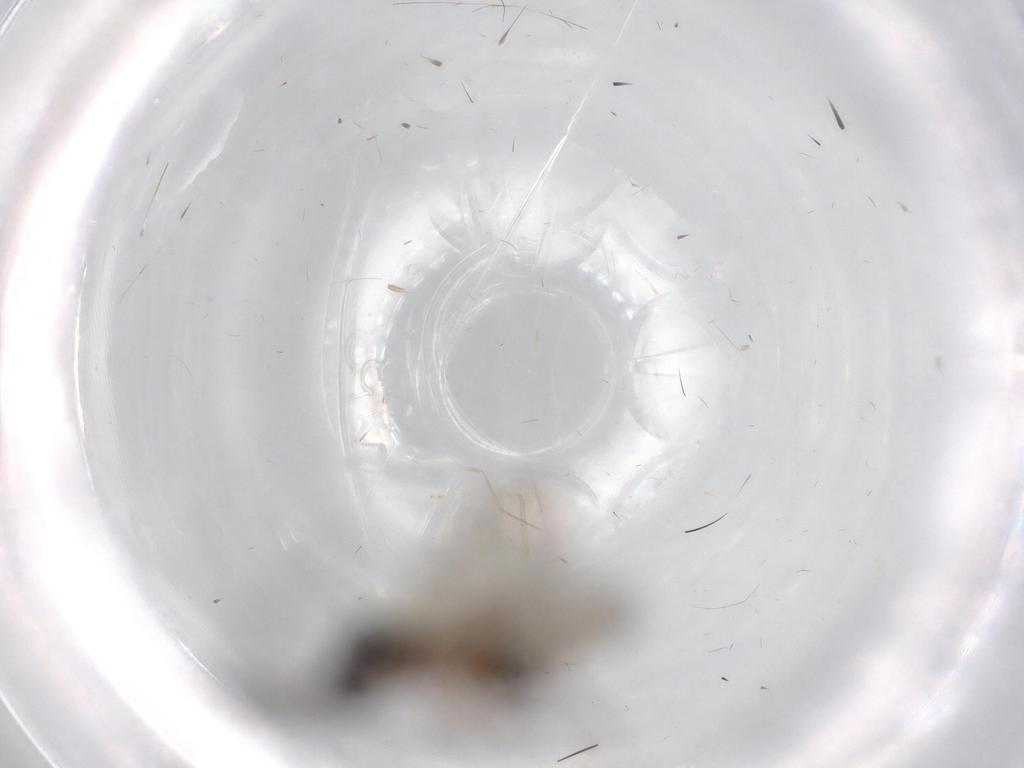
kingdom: Animalia
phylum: Arthropoda
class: Insecta
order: Hymenoptera
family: Diapriidae
